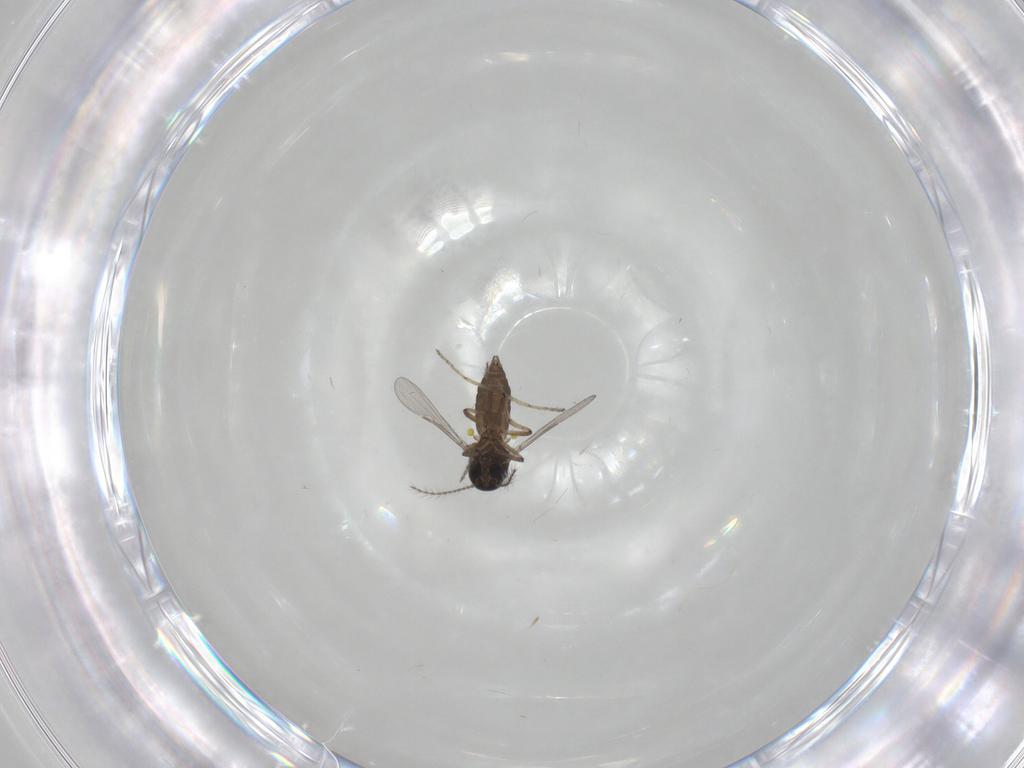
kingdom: Animalia
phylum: Arthropoda
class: Insecta
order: Diptera
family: Ceratopogonidae
